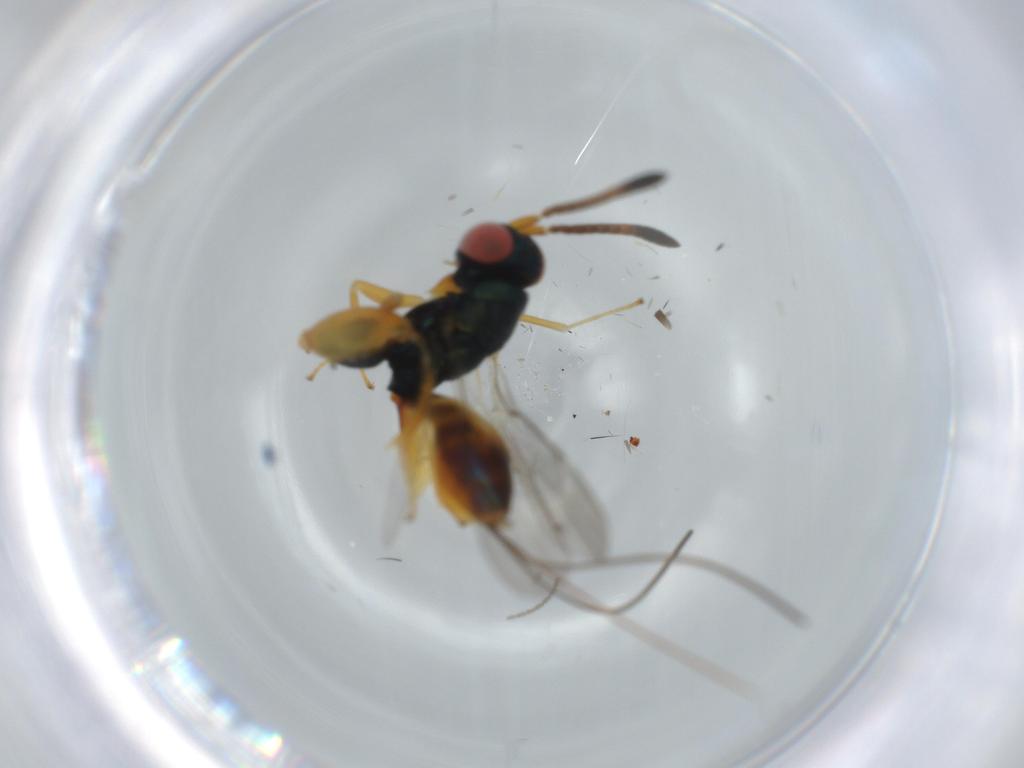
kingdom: Animalia
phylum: Arthropoda
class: Insecta
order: Hymenoptera
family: Torymidae
